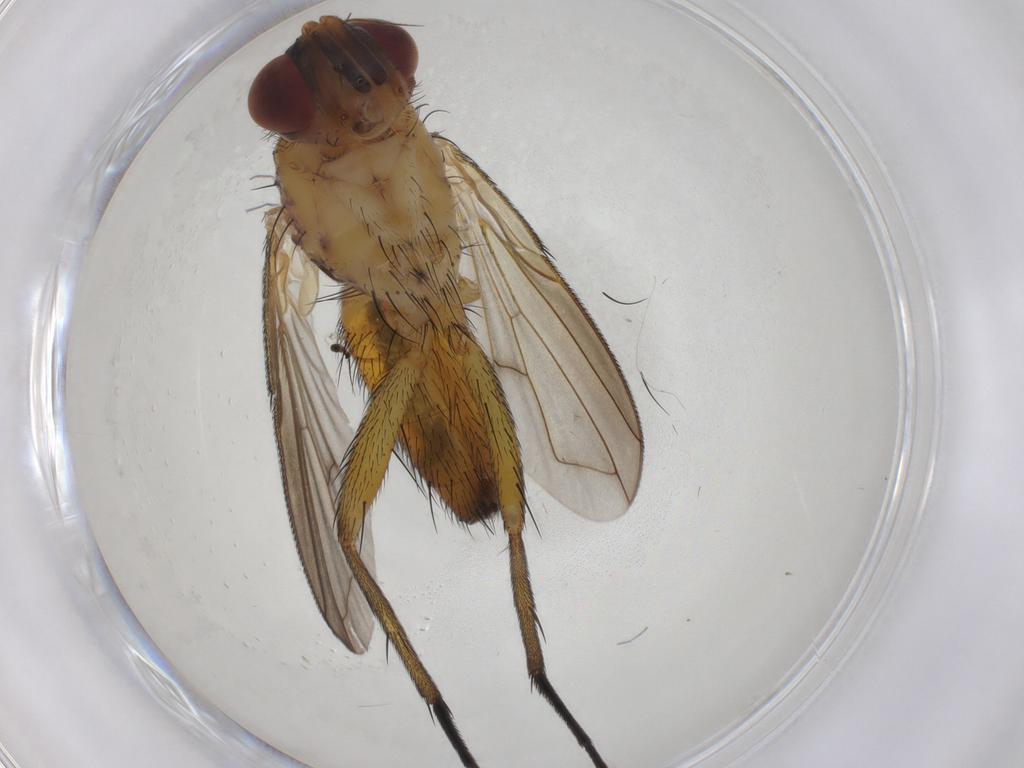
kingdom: Animalia
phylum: Arthropoda
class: Insecta
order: Diptera
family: Tachinidae
